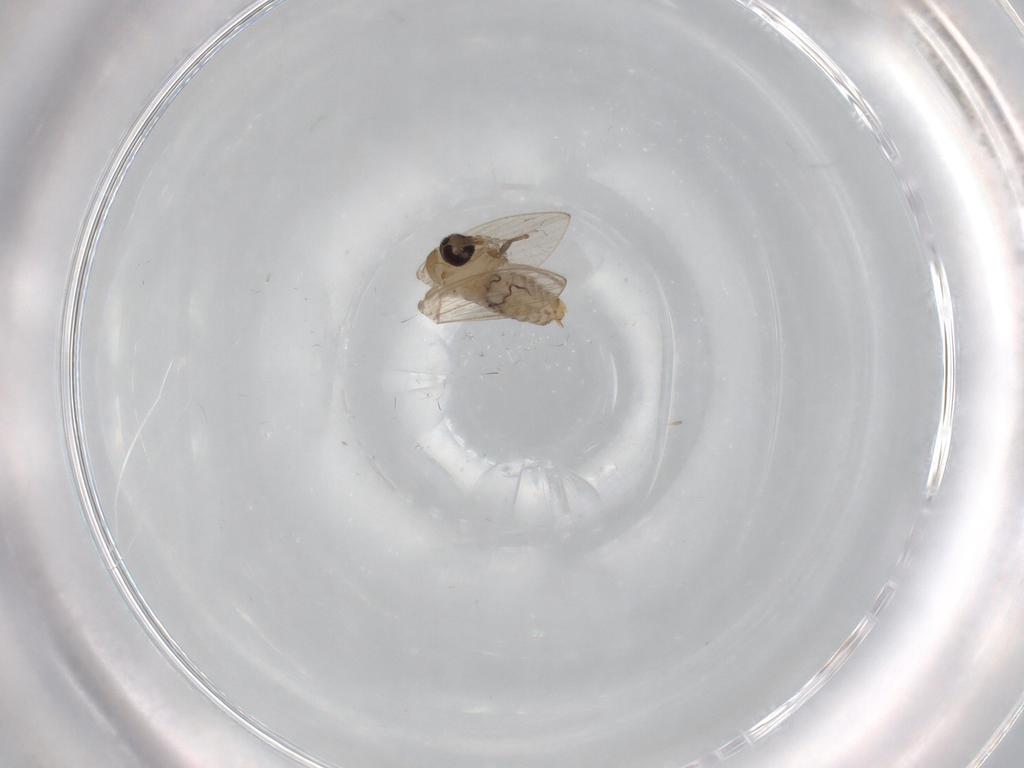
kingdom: Animalia
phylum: Arthropoda
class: Insecta
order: Diptera
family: Psychodidae
